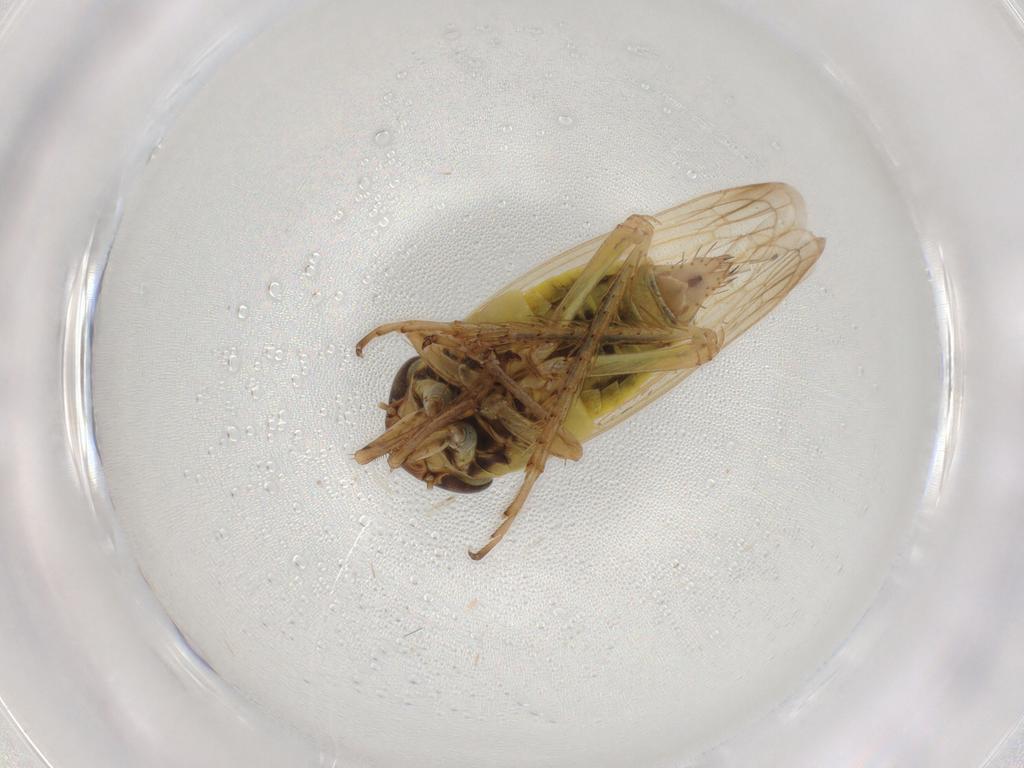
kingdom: Animalia
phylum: Arthropoda
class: Insecta
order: Hemiptera
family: Cicadellidae
